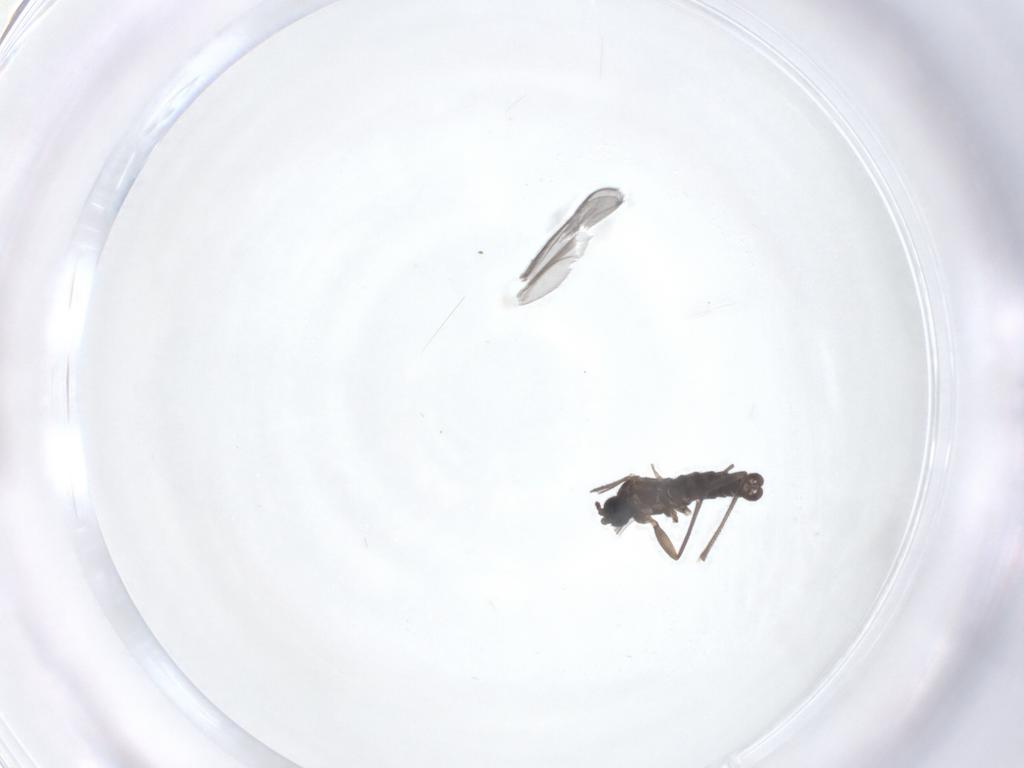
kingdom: Animalia
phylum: Arthropoda
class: Insecta
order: Diptera
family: Sciaridae
